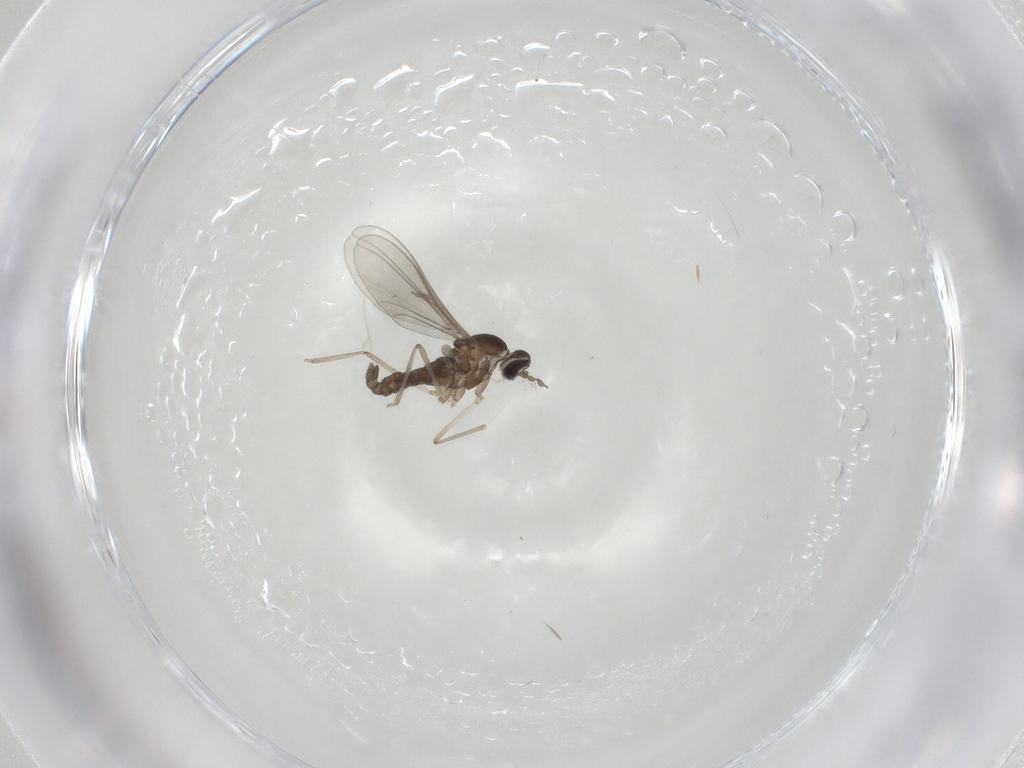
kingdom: Animalia
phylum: Arthropoda
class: Insecta
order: Diptera
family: Cecidomyiidae
